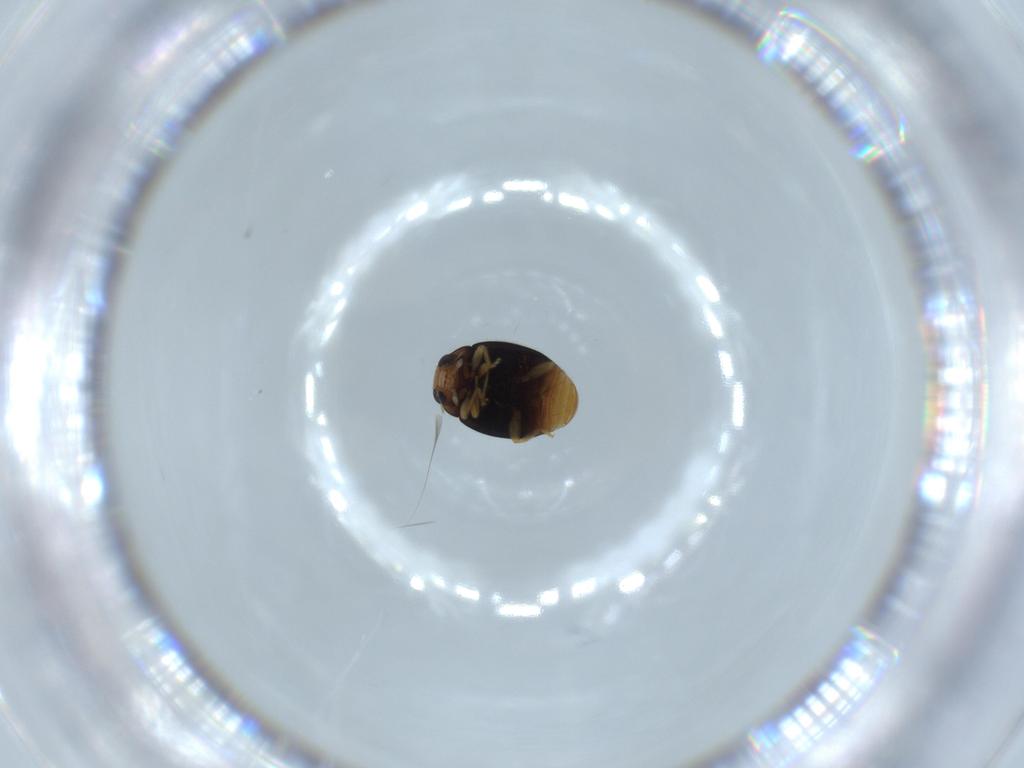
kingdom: Animalia
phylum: Arthropoda
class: Insecta
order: Coleoptera
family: Coccinellidae
